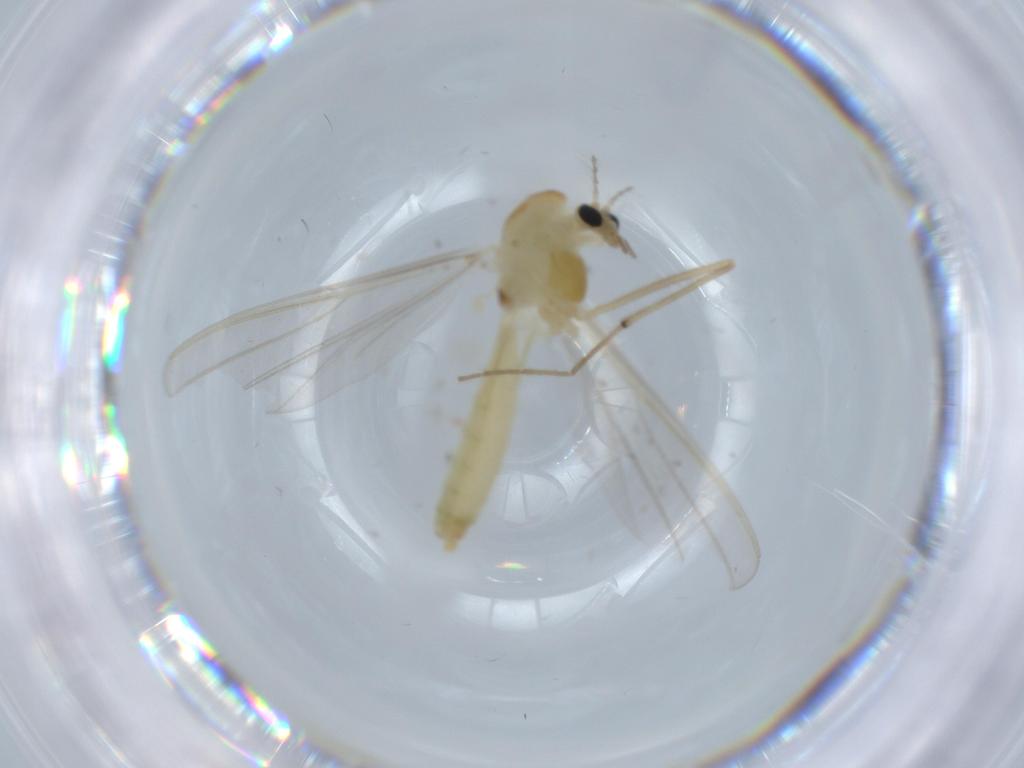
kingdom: Animalia
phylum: Arthropoda
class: Insecta
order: Diptera
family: Chironomidae
